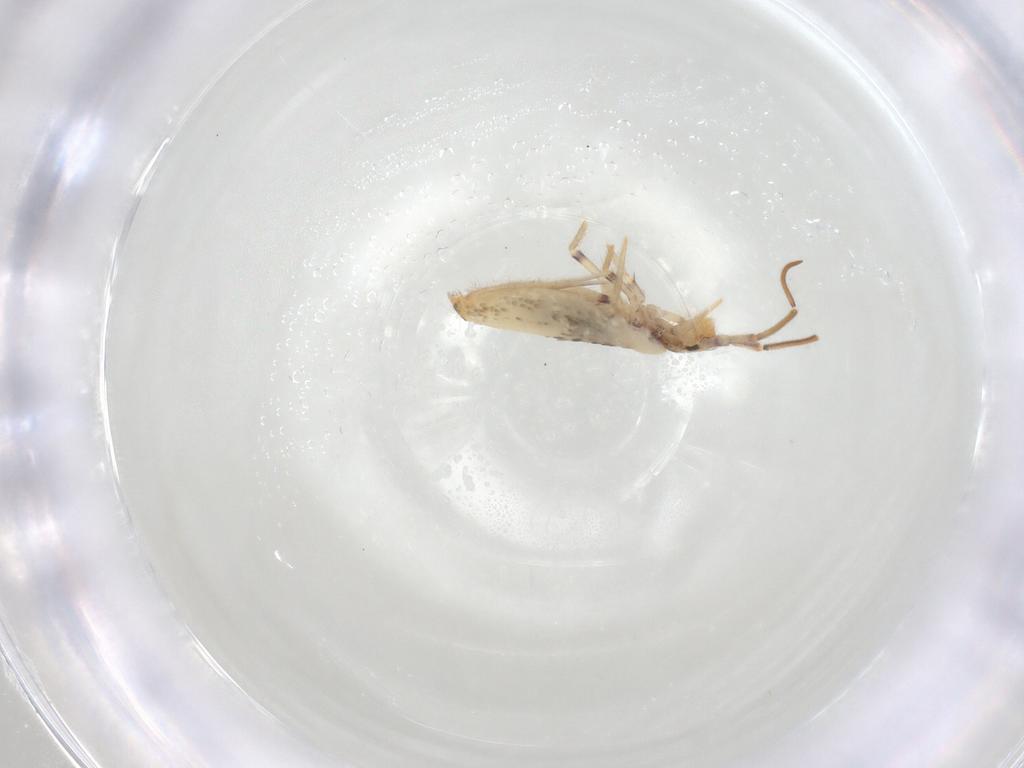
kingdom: Animalia
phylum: Arthropoda
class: Collembola
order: Entomobryomorpha
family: Entomobryidae
